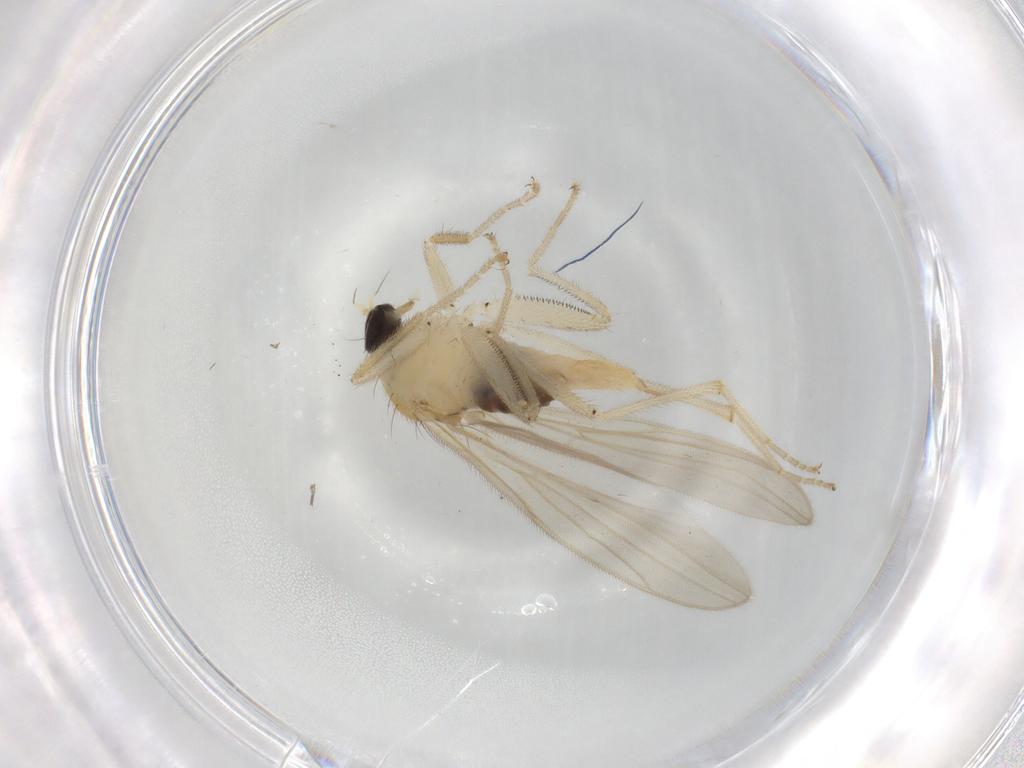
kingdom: Animalia
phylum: Arthropoda
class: Insecta
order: Diptera
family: Hybotidae
